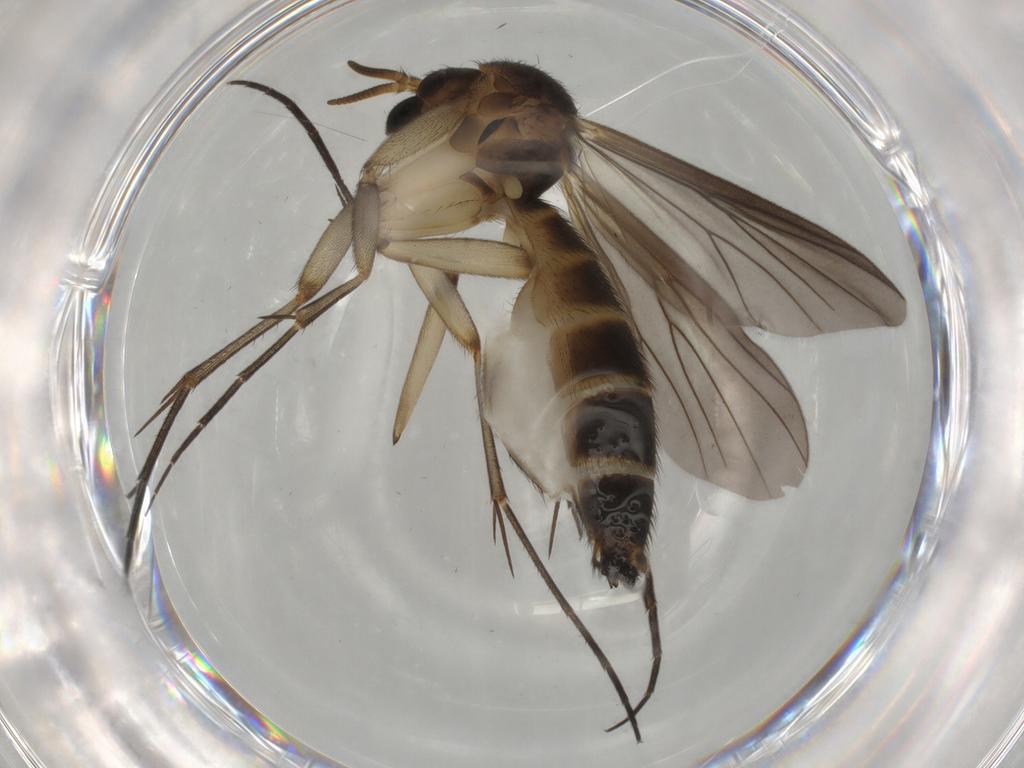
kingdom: Animalia
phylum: Arthropoda
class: Insecta
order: Diptera
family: Mycetophilidae
